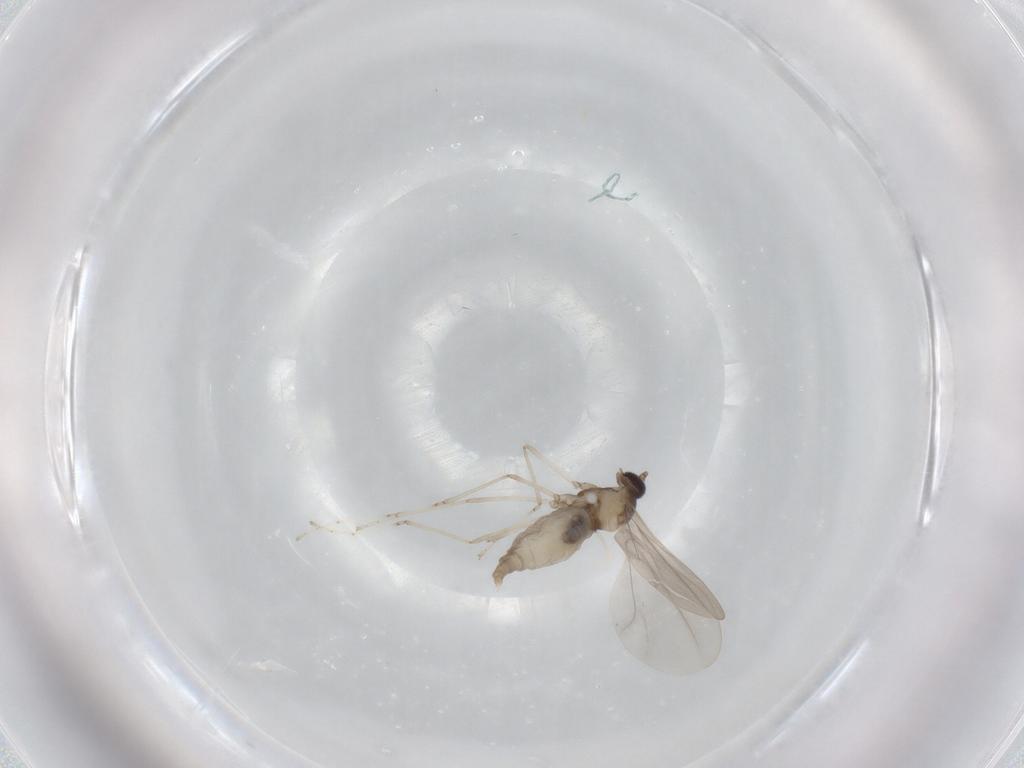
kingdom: Animalia
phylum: Arthropoda
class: Insecta
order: Diptera
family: Cecidomyiidae
